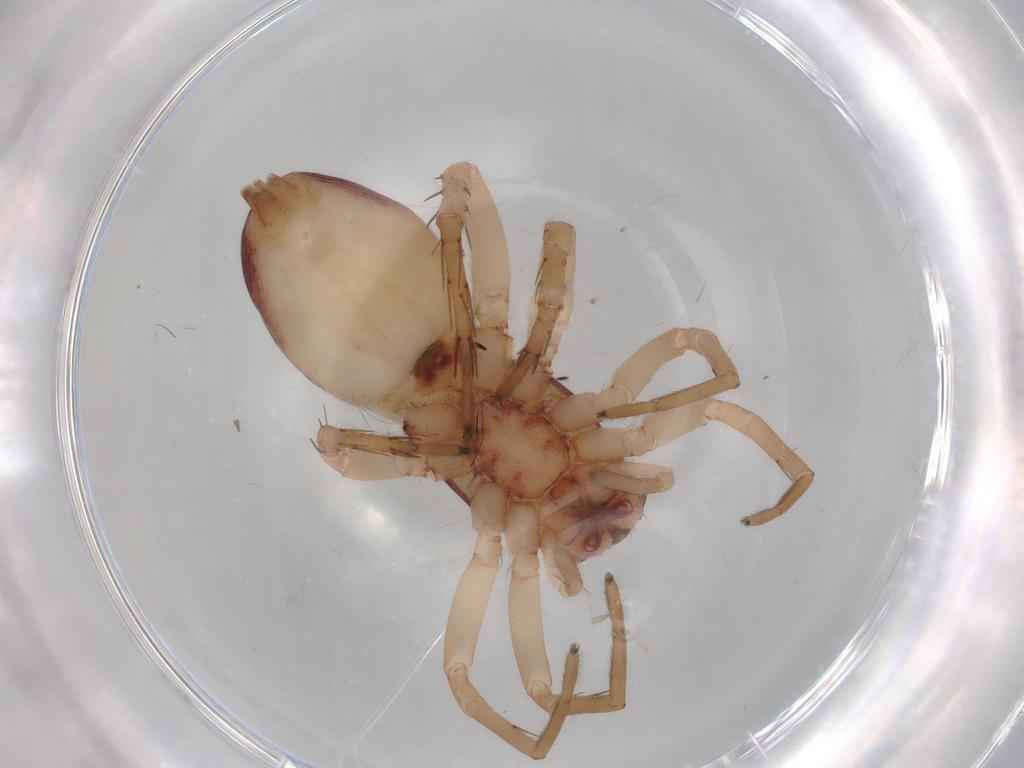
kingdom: Animalia
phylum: Arthropoda
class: Arachnida
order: Araneae
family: Clubionidae
